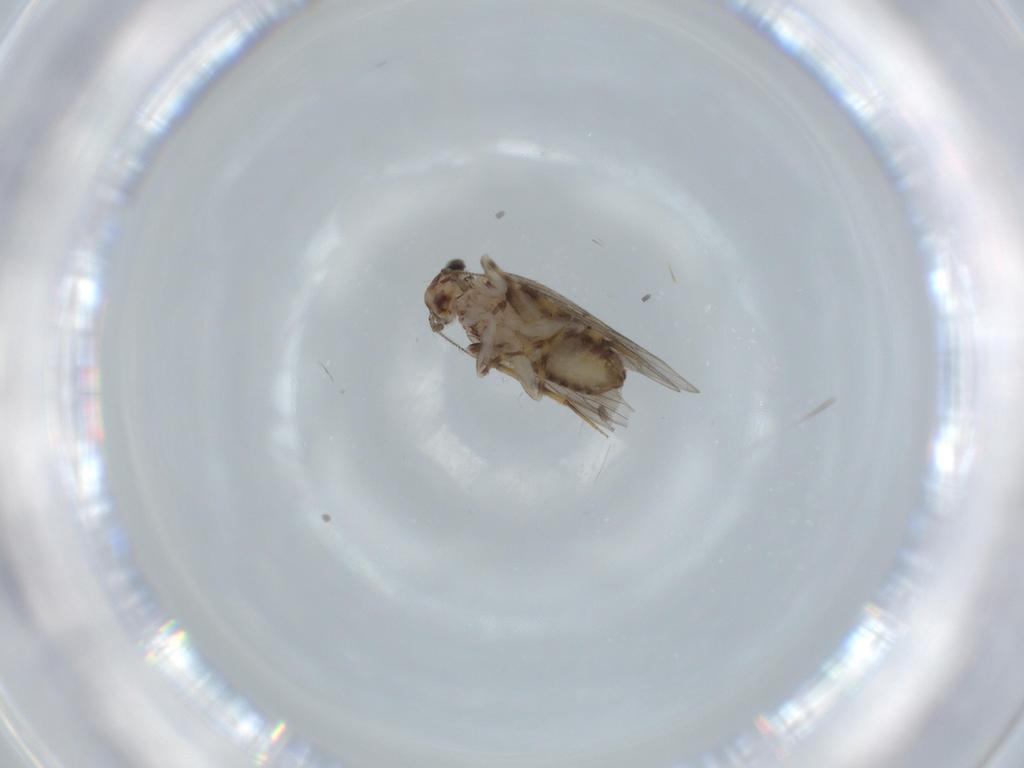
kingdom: Animalia
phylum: Arthropoda
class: Insecta
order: Psocodea
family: Lepidopsocidae
